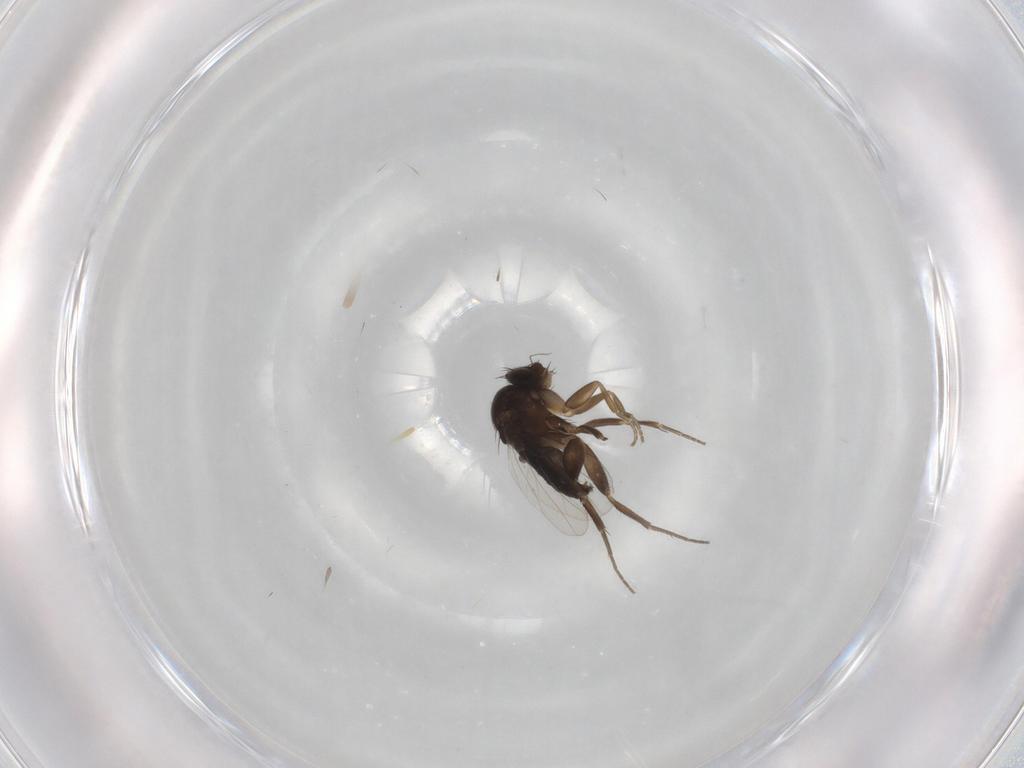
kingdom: Animalia
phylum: Arthropoda
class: Insecta
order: Diptera
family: Phoridae
